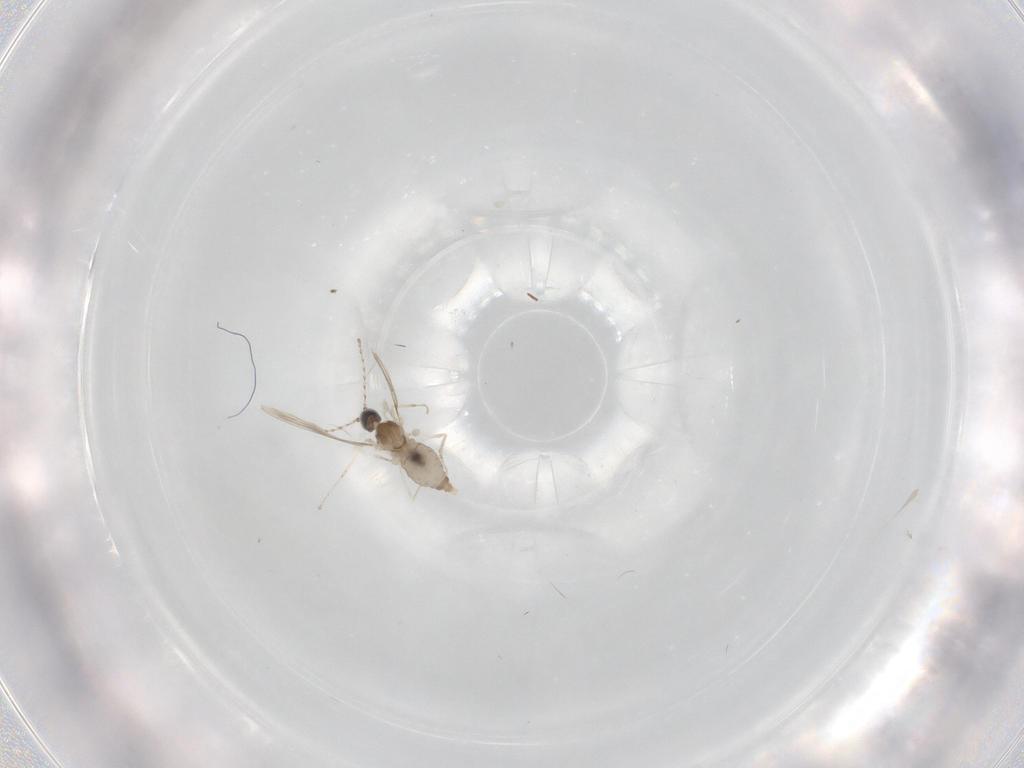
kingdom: Animalia
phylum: Arthropoda
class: Insecta
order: Diptera
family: Cecidomyiidae
